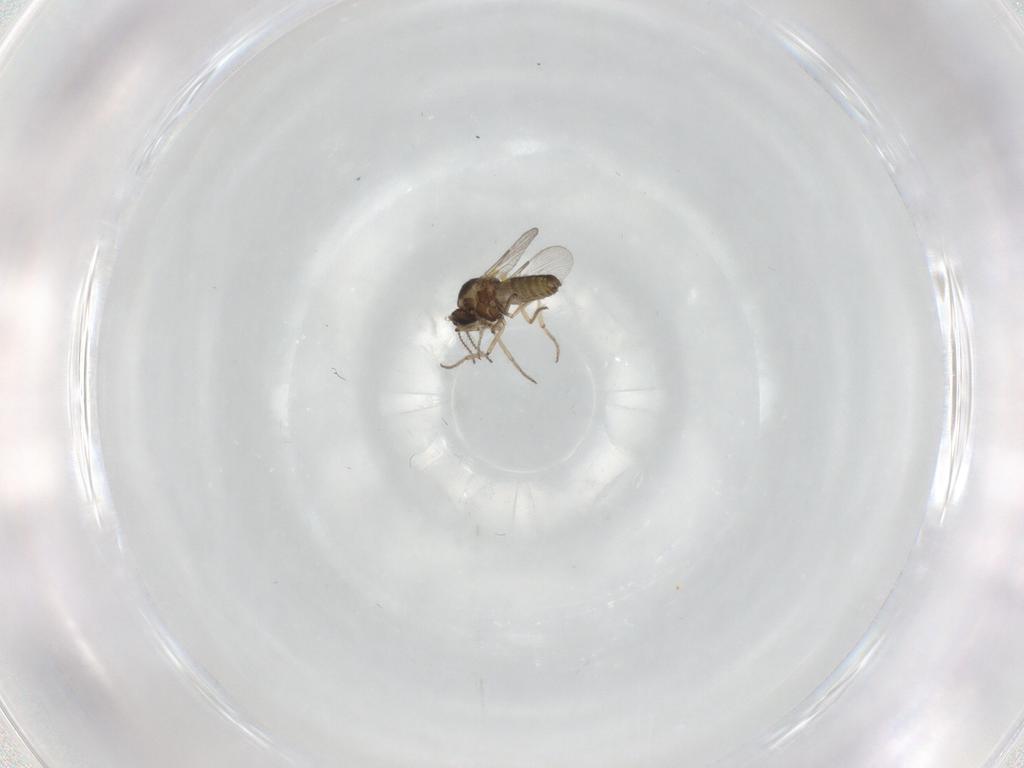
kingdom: Animalia
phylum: Arthropoda
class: Insecta
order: Diptera
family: Ceratopogonidae
